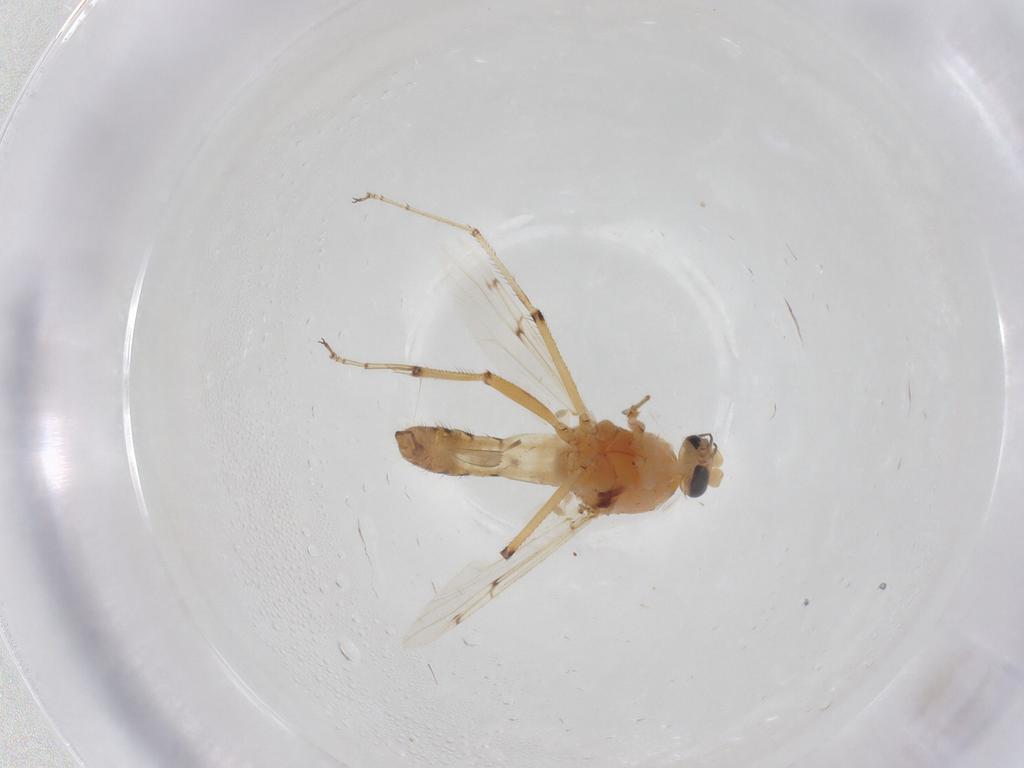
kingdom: Animalia
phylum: Arthropoda
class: Insecta
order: Diptera
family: Ceratopogonidae
